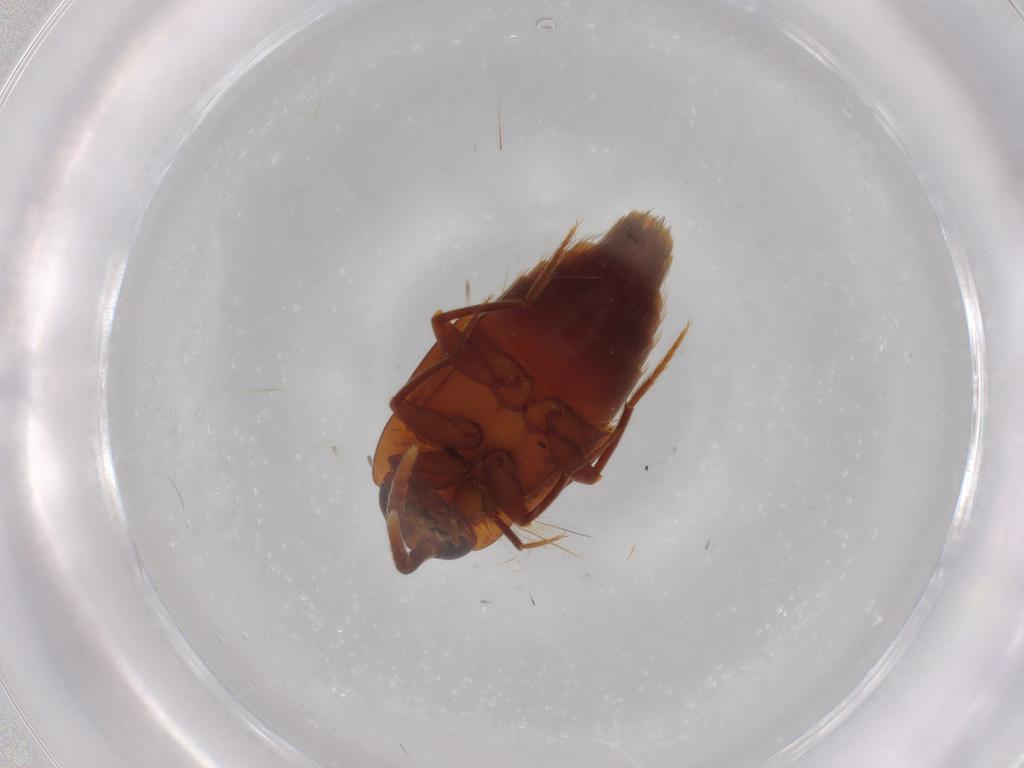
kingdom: Animalia
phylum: Arthropoda
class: Insecta
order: Coleoptera
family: Staphylinidae
